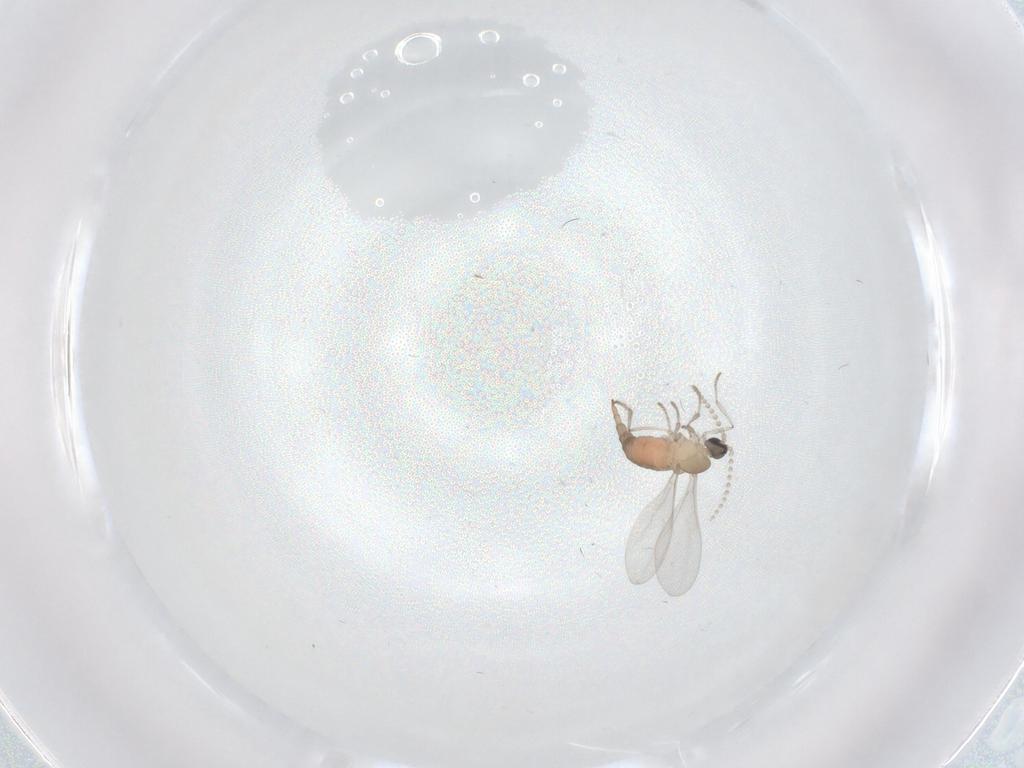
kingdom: Animalia
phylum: Arthropoda
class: Insecta
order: Diptera
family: Cecidomyiidae
